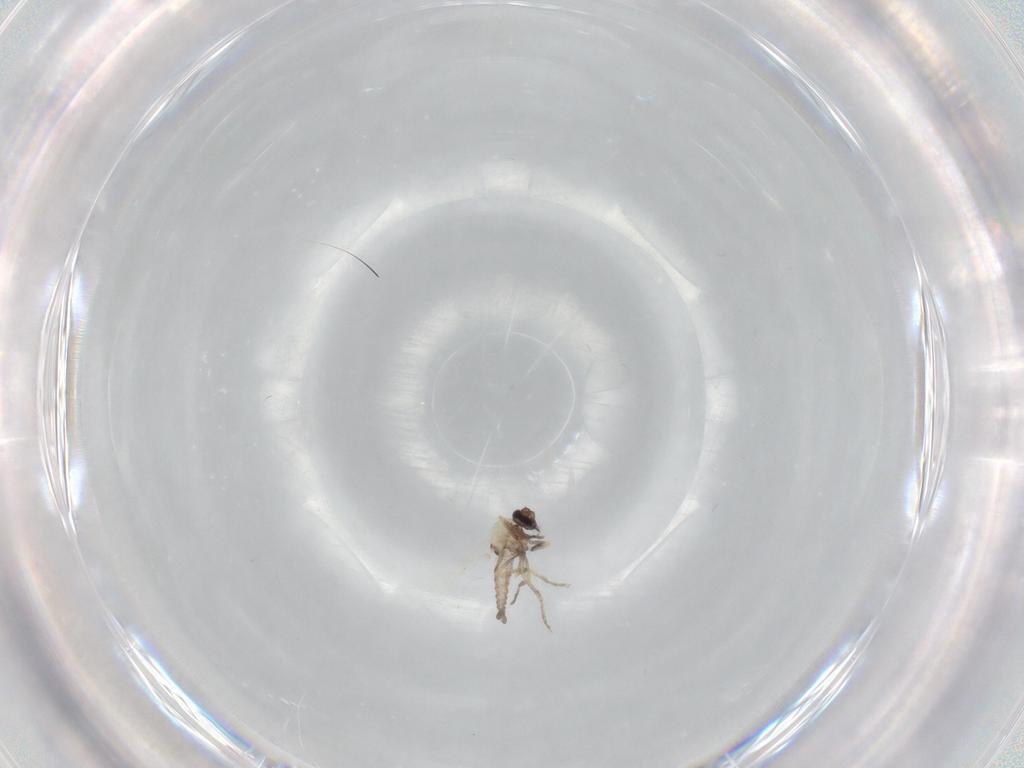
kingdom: Animalia
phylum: Arthropoda
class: Insecta
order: Diptera
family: Ceratopogonidae
